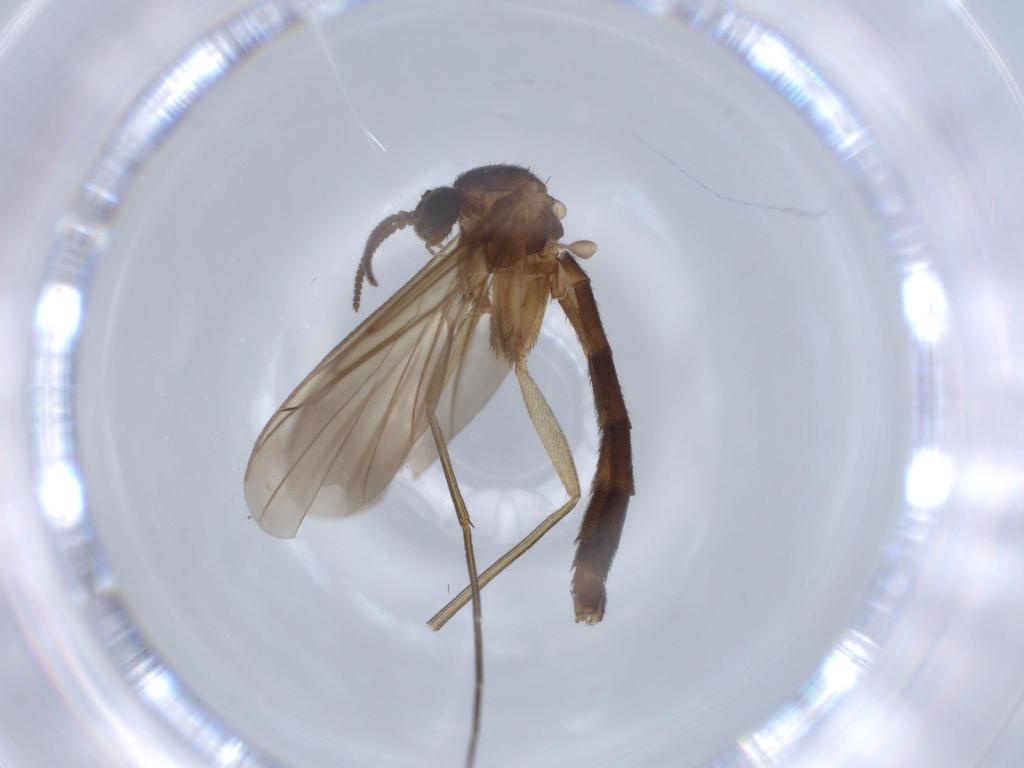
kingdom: Animalia
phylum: Arthropoda
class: Insecta
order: Diptera
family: Keroplatidae
